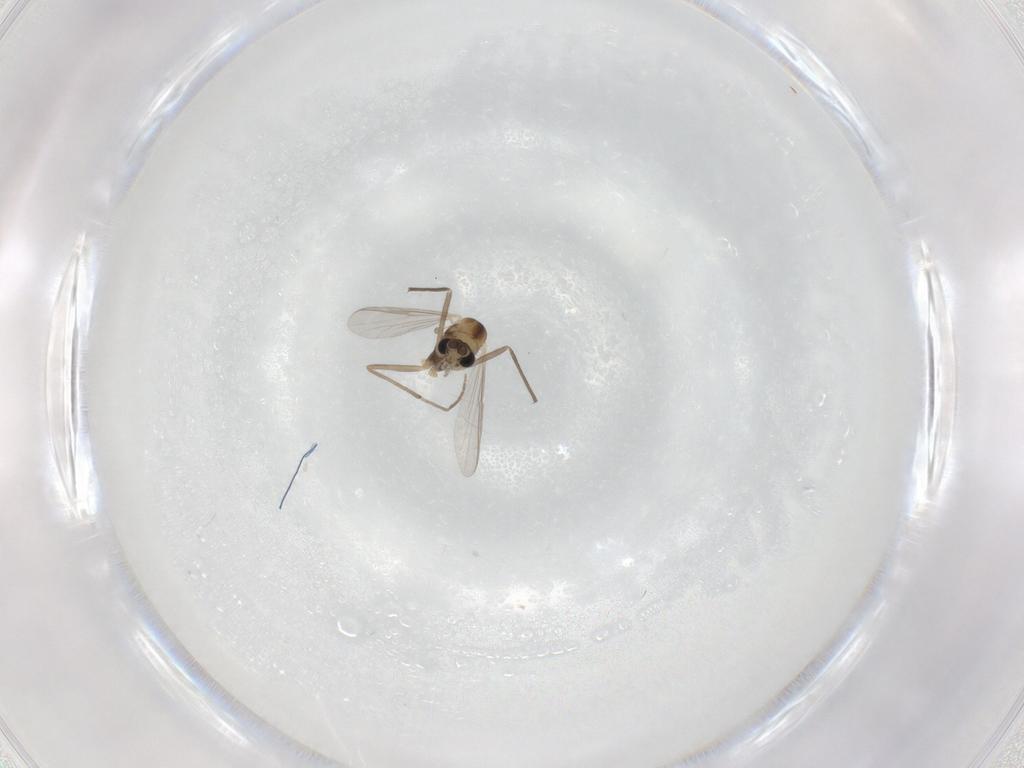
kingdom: Animalia
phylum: Arthropoda
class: Insecta
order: Diptera
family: Chironomidae
